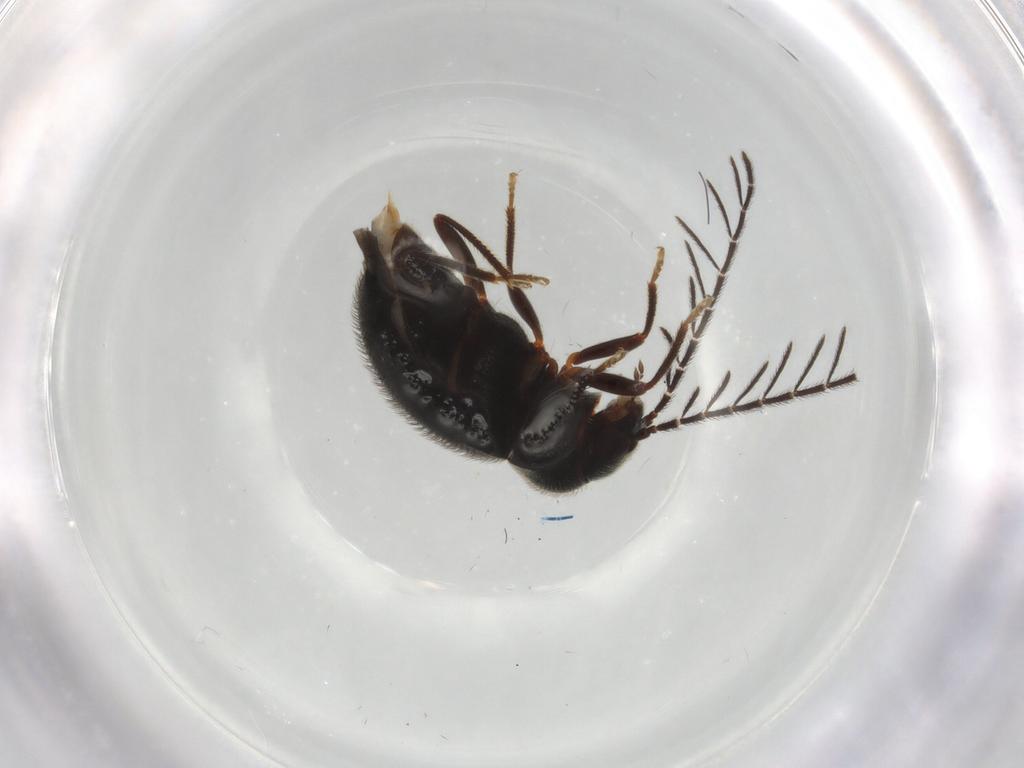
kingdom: Animalia
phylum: Arthropoda
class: Insecta
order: Coleoptera
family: Ptilodactylidae
